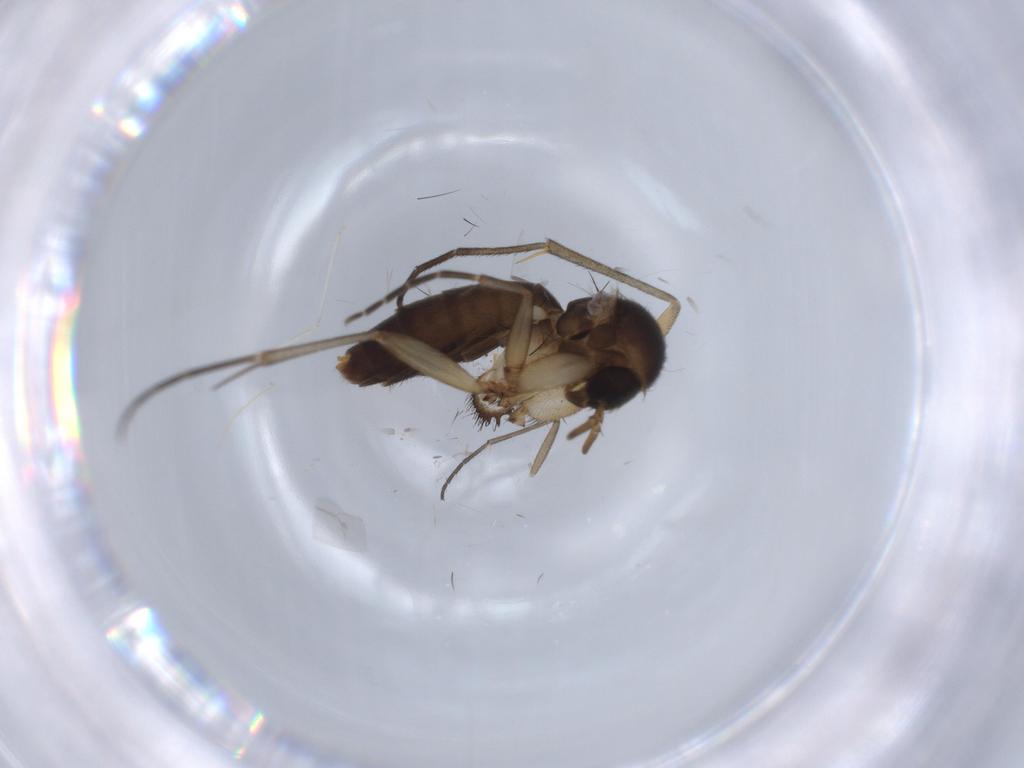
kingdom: Animalia
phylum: Arthropoda
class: Insecta
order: Diptera
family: Mycetophilidae
